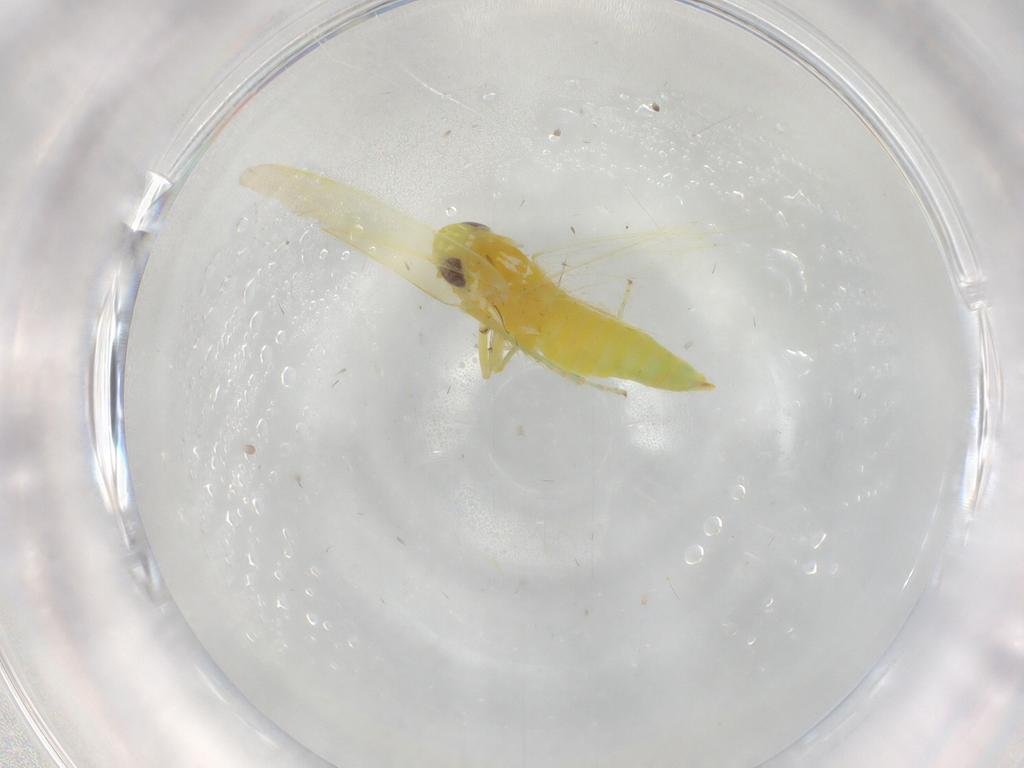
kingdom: Animalia
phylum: Arthropoda
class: Insecta
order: Hemiptera
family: Cicadellidae
